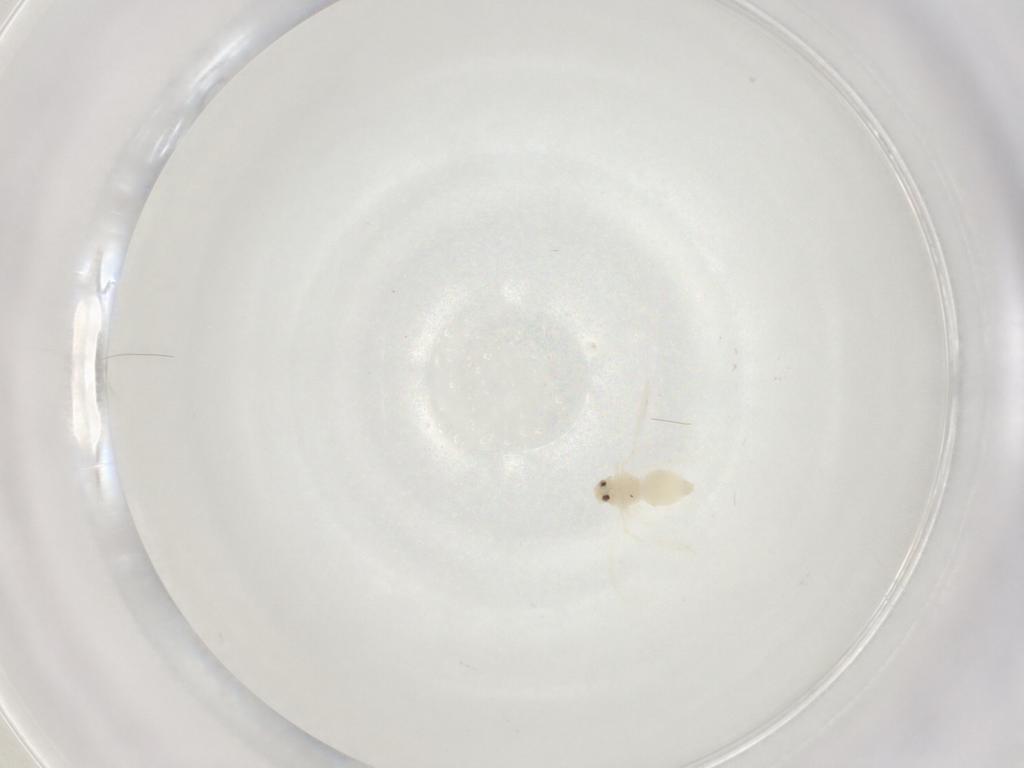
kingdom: Animalia
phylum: Arthropoda
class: Insecta
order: Hemiptera
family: Aleyrodidae
